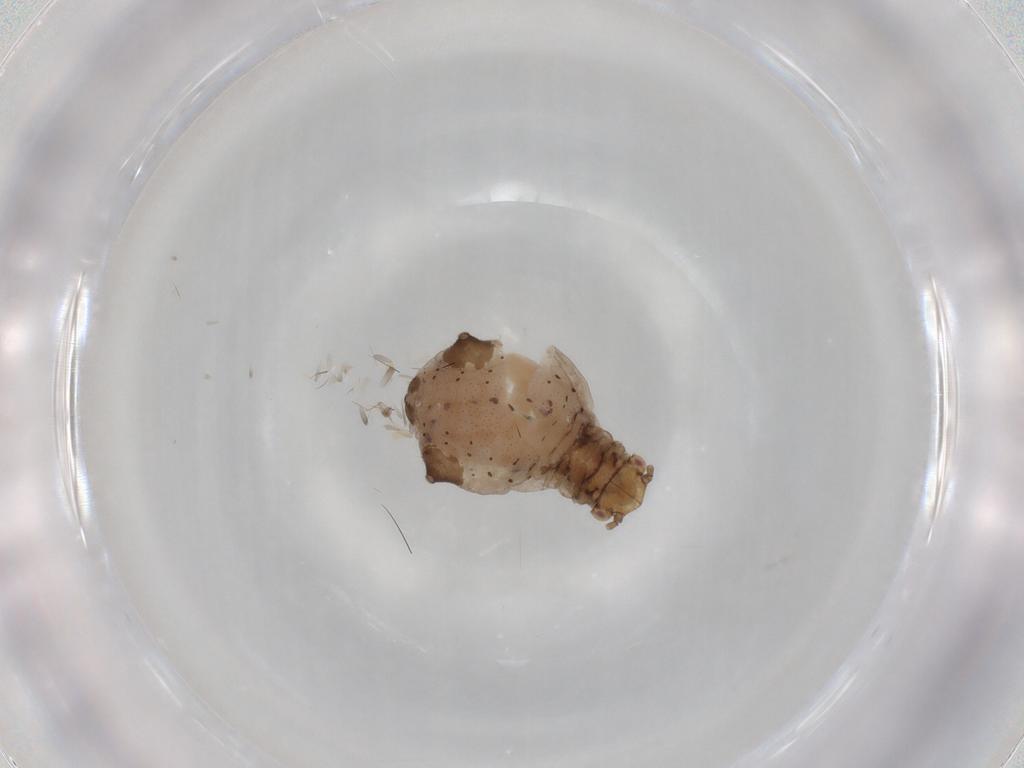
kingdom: Animalia
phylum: Arthropoda
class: Insecta
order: Hemiptera
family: Aphididae
